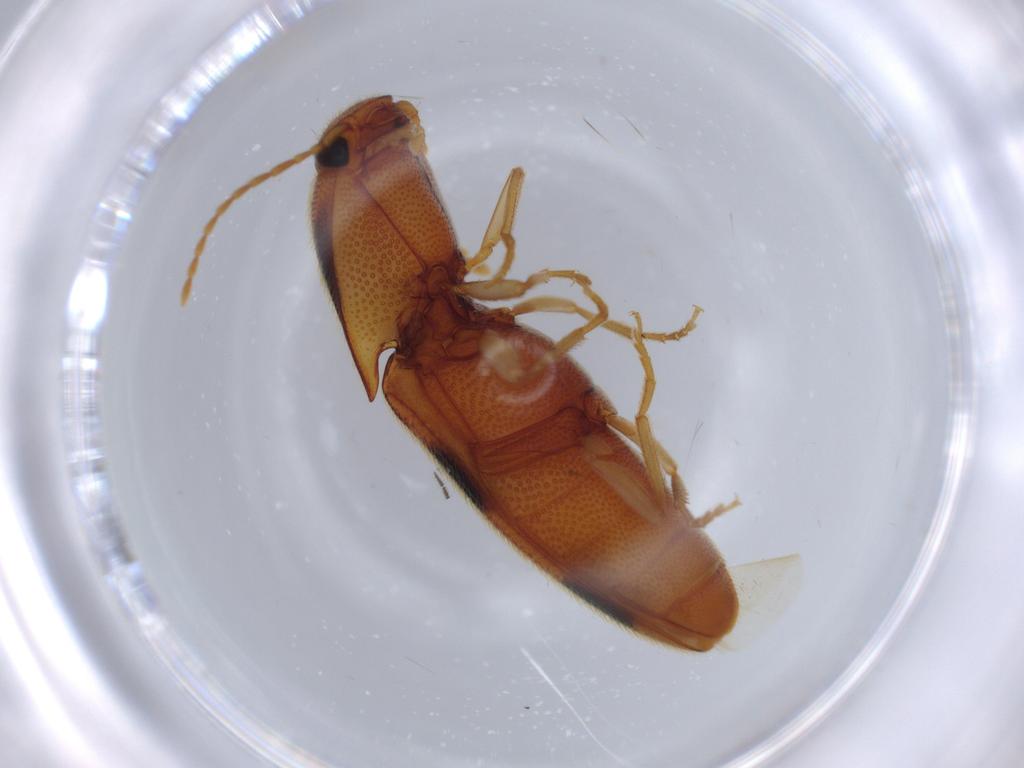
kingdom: Animalia
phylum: Arthropoda
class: Insecta
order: Coleoptera
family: Elateridae
